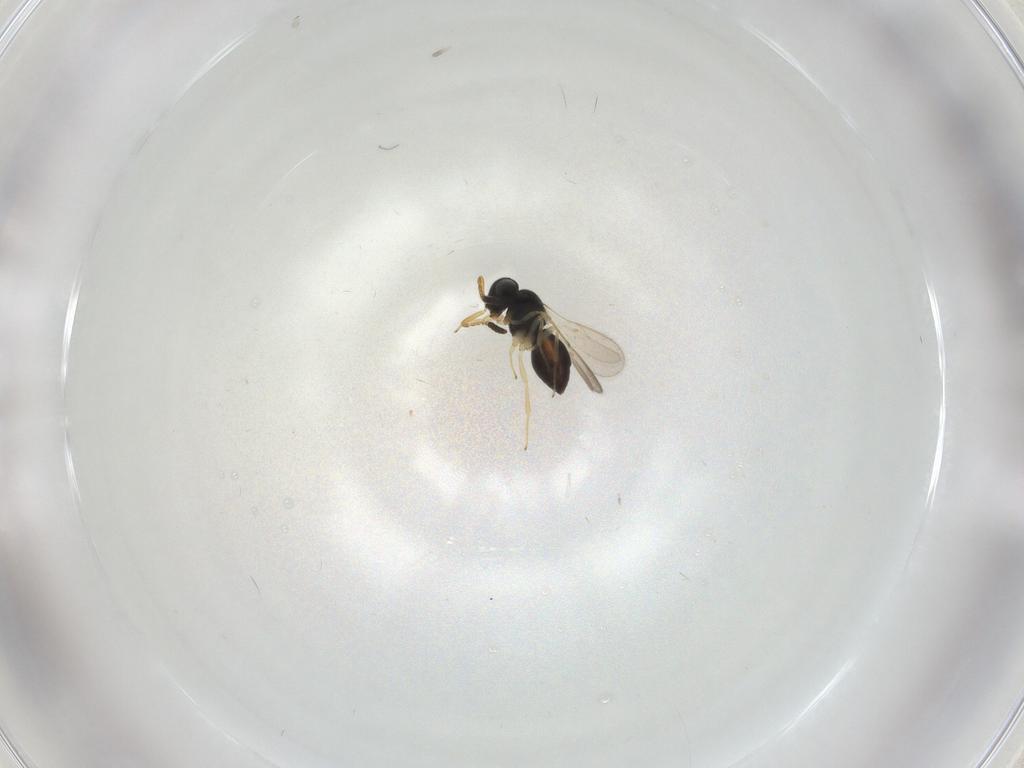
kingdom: Animalia
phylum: Arthropoda
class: Insecta
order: Hymenoptera
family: Scelionidae
